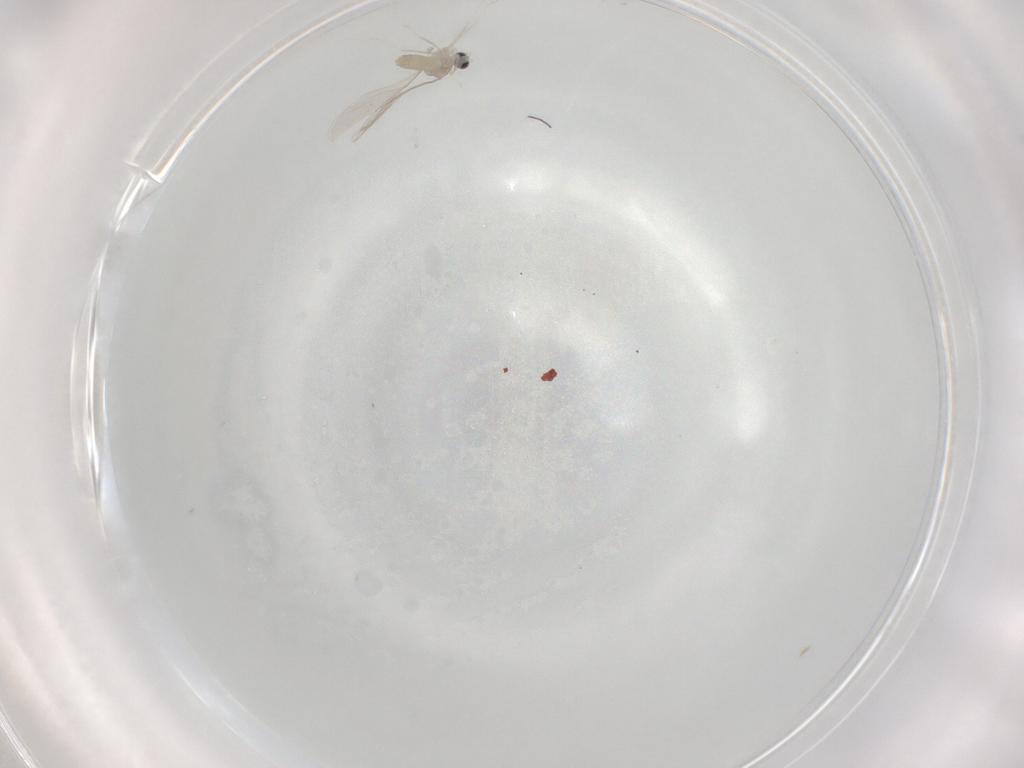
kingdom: Animalia
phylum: Arthropoda
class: Insecta
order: Diptera
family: Cecidomyiidae
